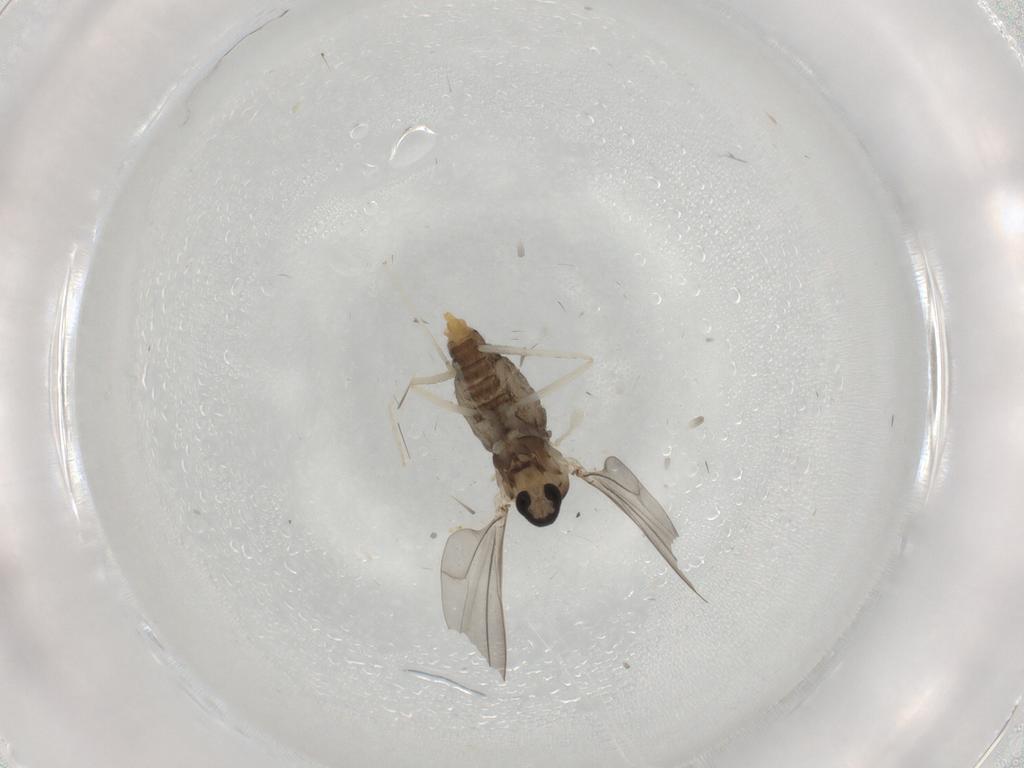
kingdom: Animalia
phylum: Arthropoda
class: Insecta
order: Diptera
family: Cecidomyiidae
